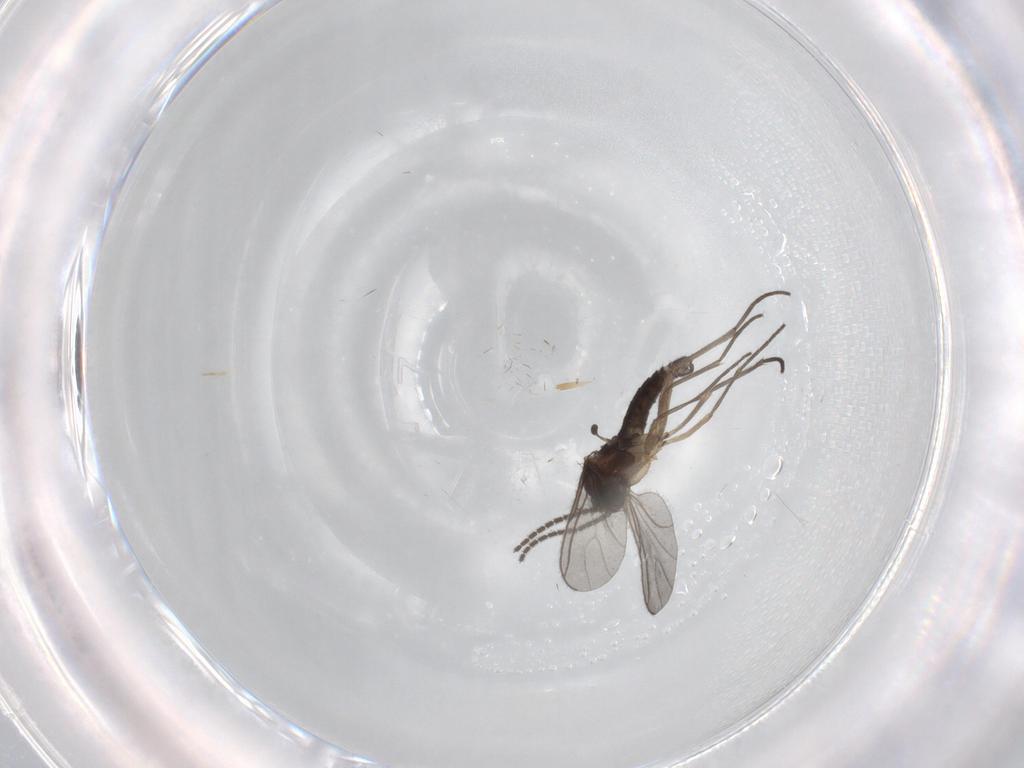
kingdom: Animalia
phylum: Arthropoda
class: Insecta
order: Diptera
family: Sciaridae
